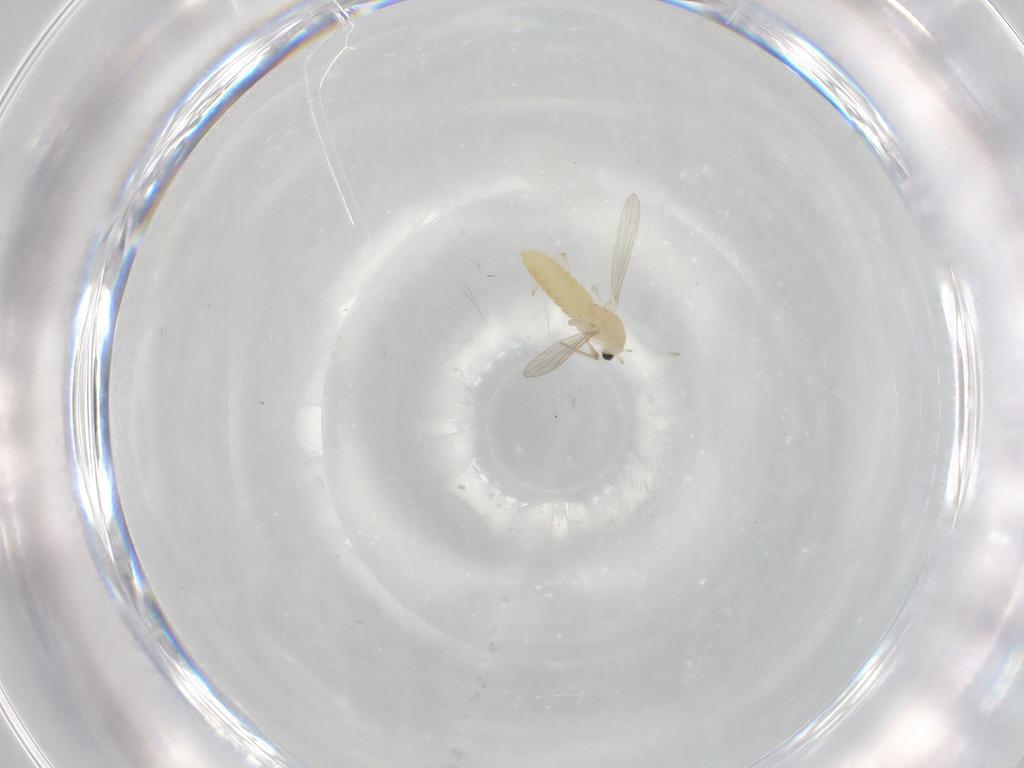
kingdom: Animalia
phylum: Arthropoda
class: Insecta
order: Diptera
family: Chironomidae
